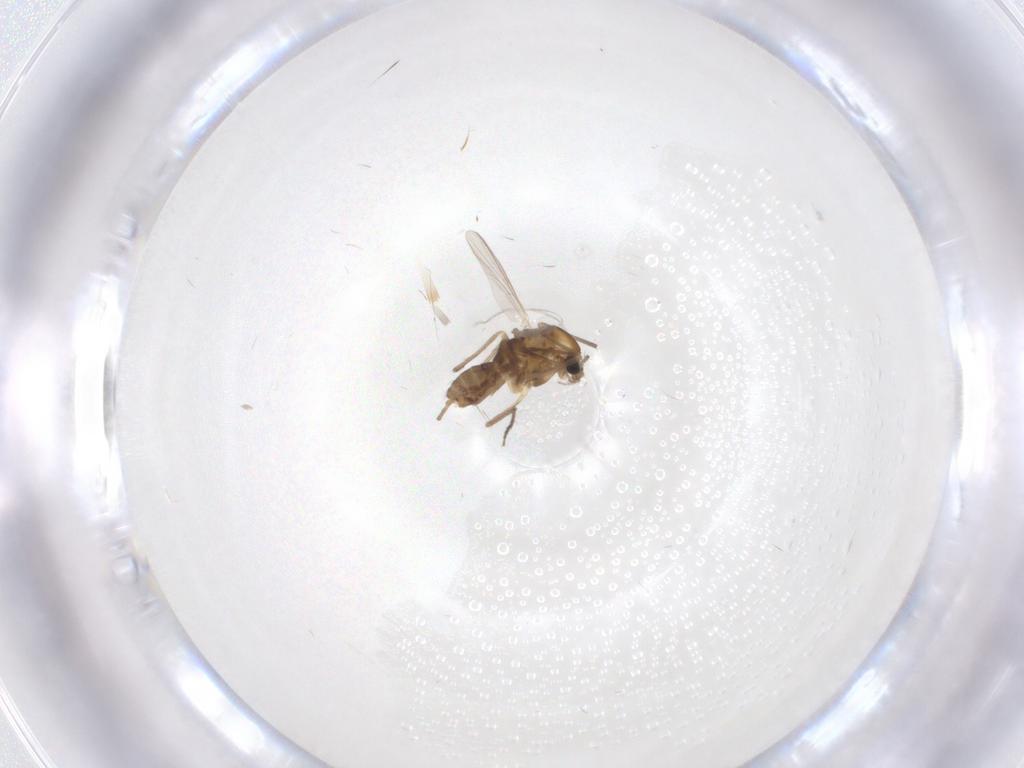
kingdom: Animalia
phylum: Arthropoda
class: Insecta
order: Diptera
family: Chironomidae
